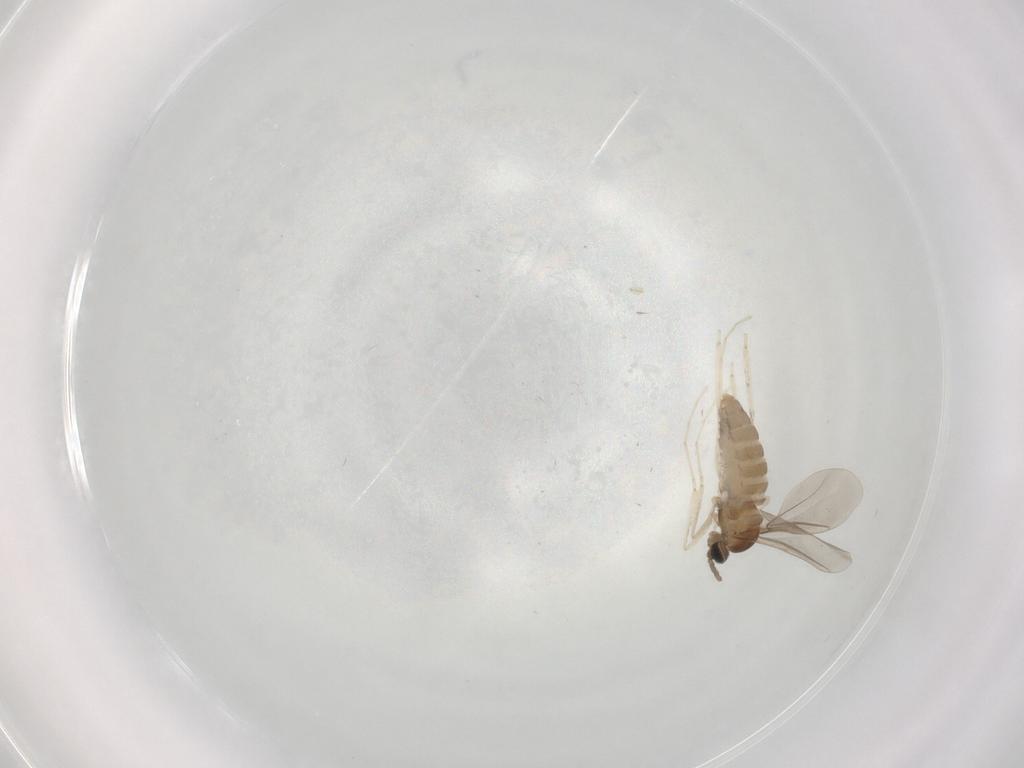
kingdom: Animalia
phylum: Arthropoda
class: Insecta
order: Diptera
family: Cecidomyiidae
